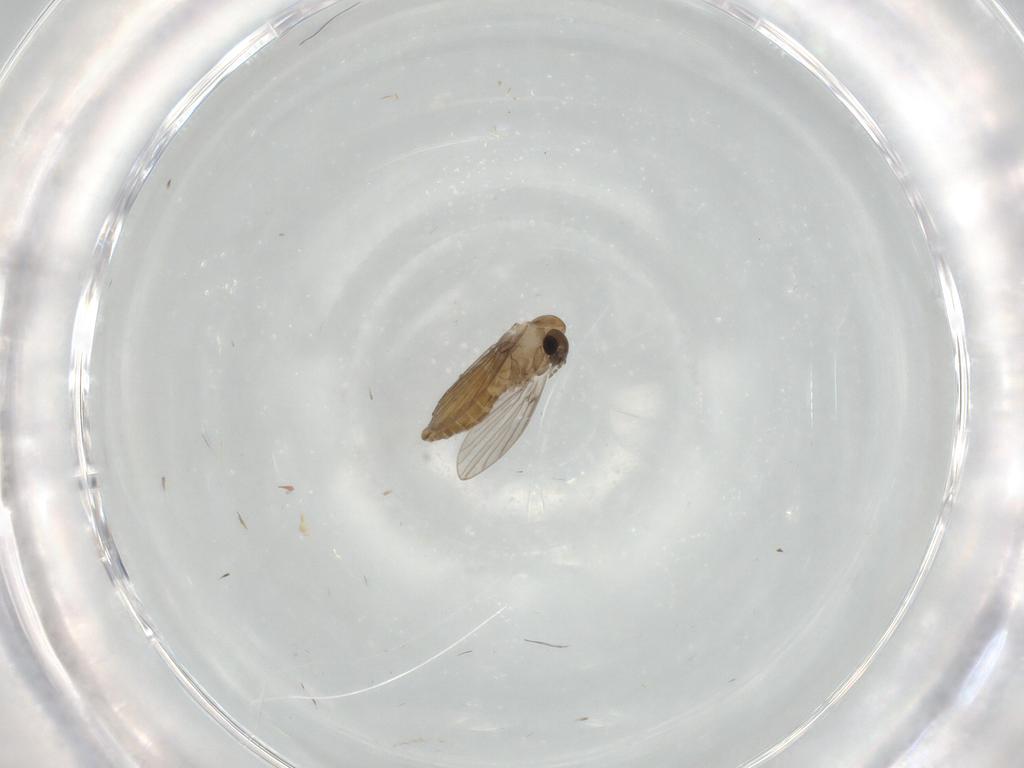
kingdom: Animalia
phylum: Arthropoda
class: Insecta
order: Diptera
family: Psychodidae
